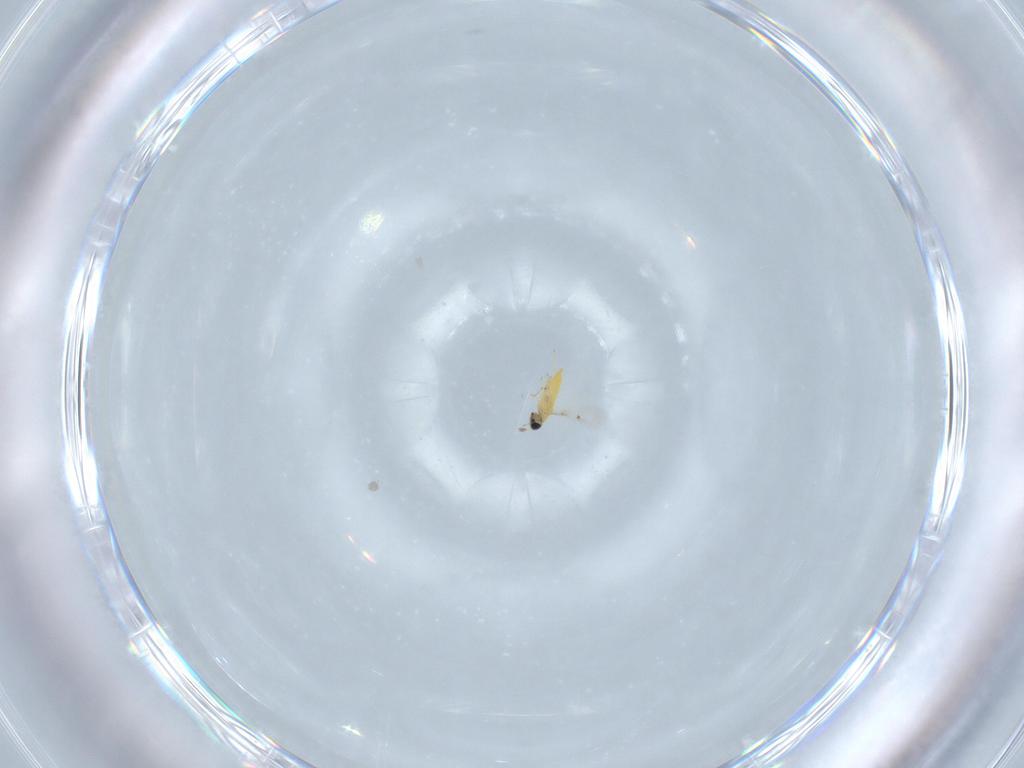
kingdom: Animalia
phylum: Arthropoda
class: Insecta
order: Hymenoptera
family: Trichogrammatidae
